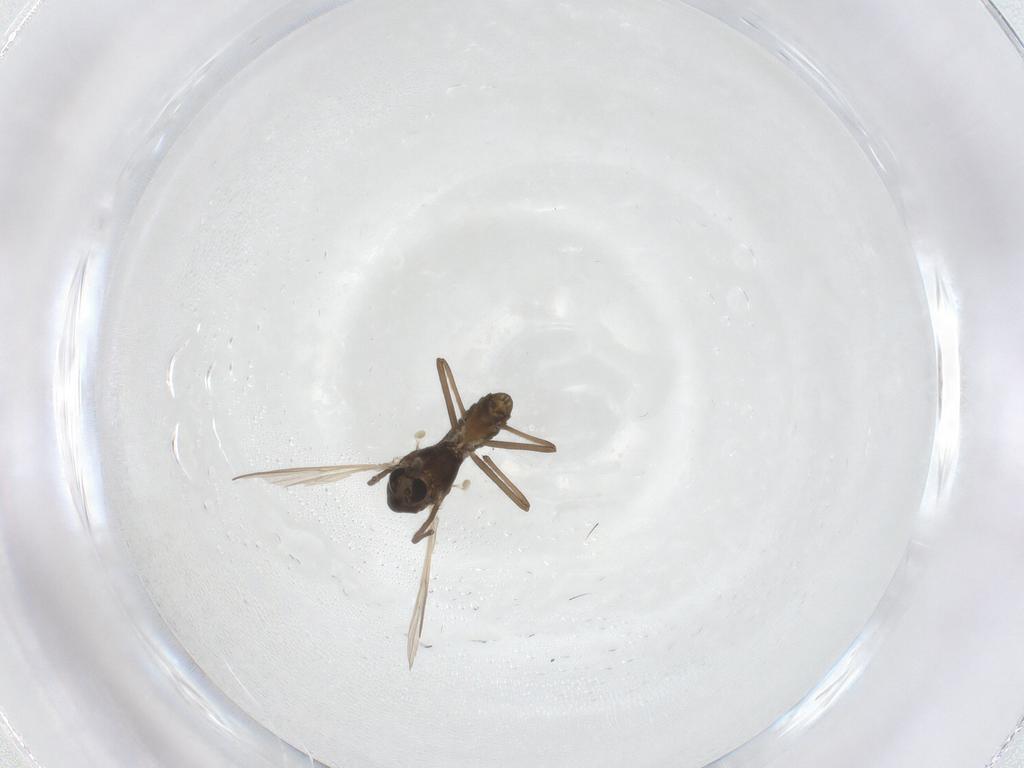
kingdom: Animalia
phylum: Arthropoda
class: Insecta
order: Diptera
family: Chironomidae
